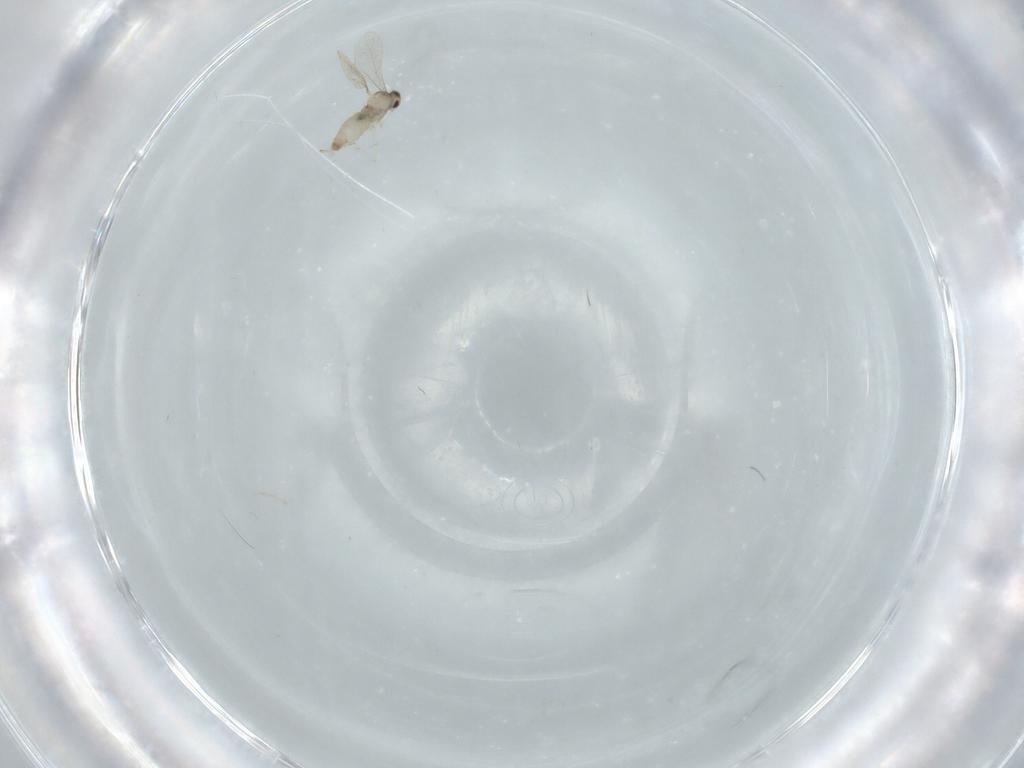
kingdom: Animalia
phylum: Arthropoda
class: Insecta
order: Diptera
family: Cecidomyiidae
